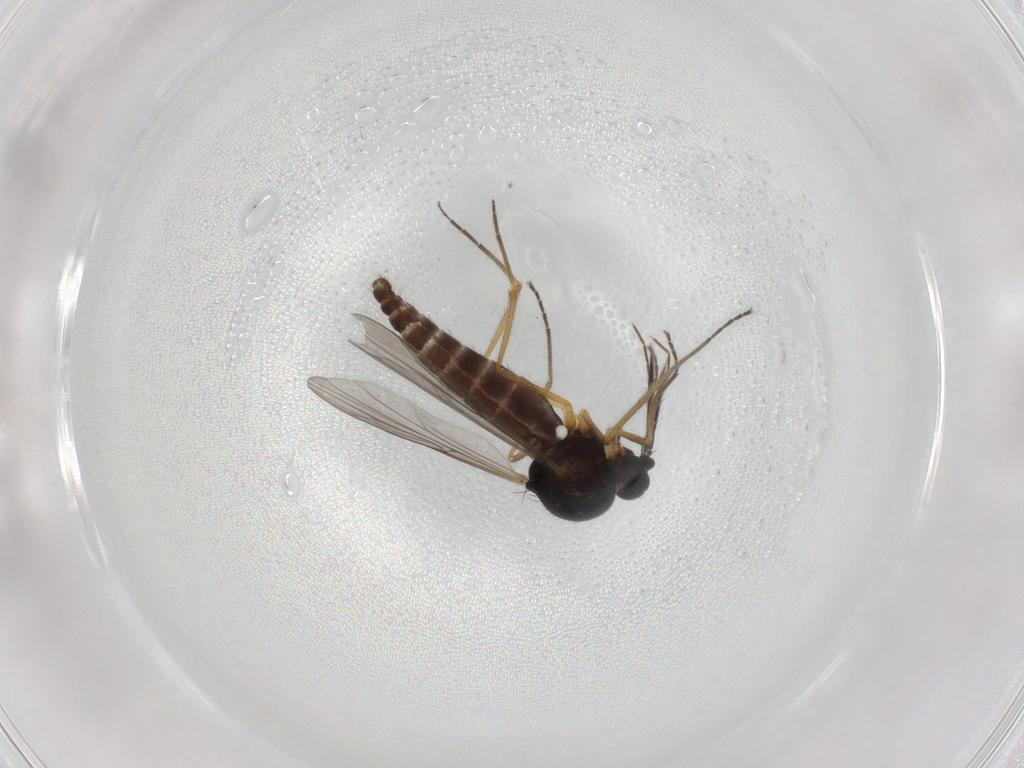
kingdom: Animalia
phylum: Arthropoda
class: Insecta
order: Diptera
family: Ceratopogonidae
